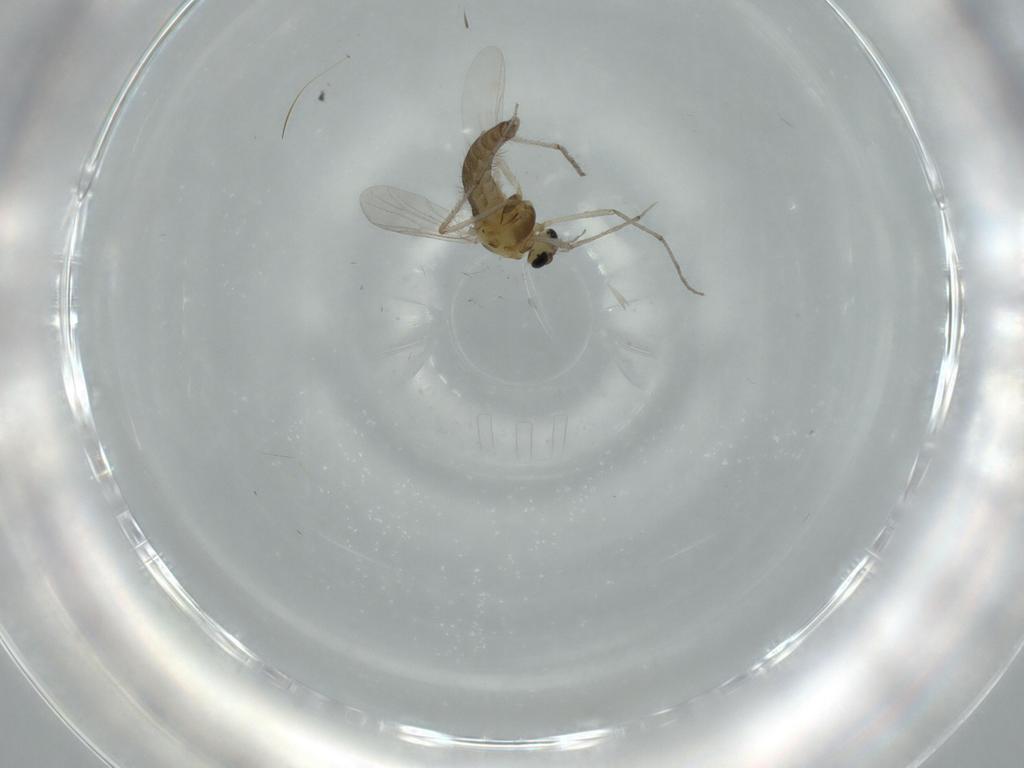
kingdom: Animalia
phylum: Arthropoda
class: Insecta
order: Diptera
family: Chironomidae
